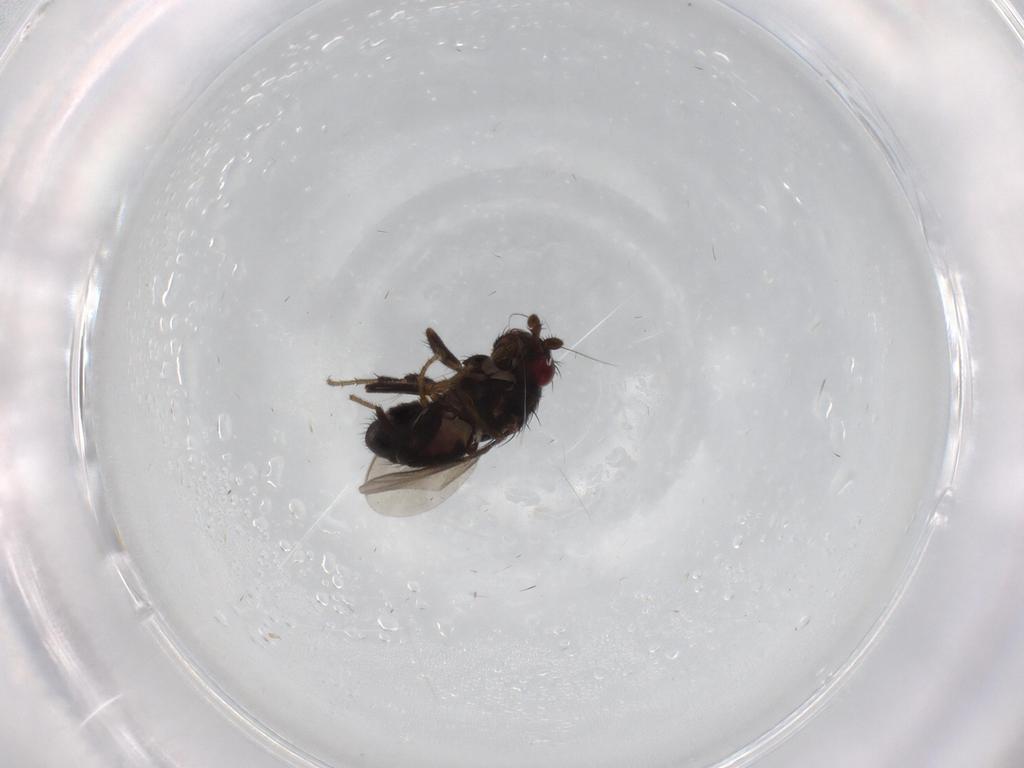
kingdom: Animalia
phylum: Arthropoda
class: Insecta
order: Diptera
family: Sphaeroceridae
